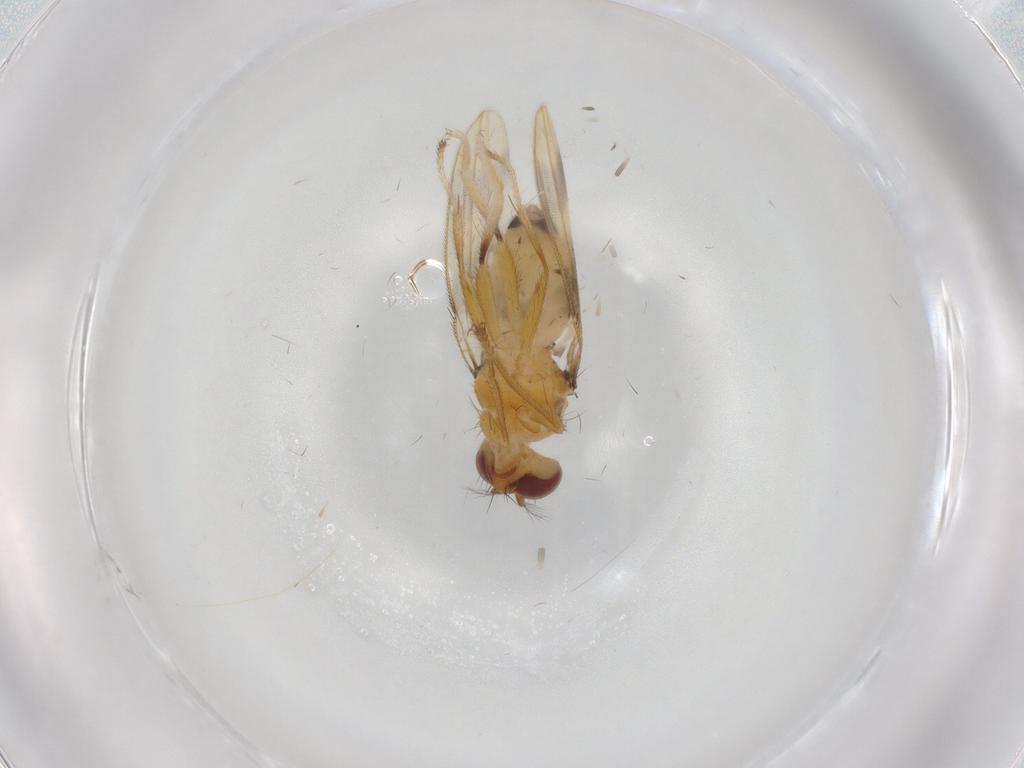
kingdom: Animalia
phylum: Arthropoda
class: Insecta
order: Diptera
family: Periscelididae
